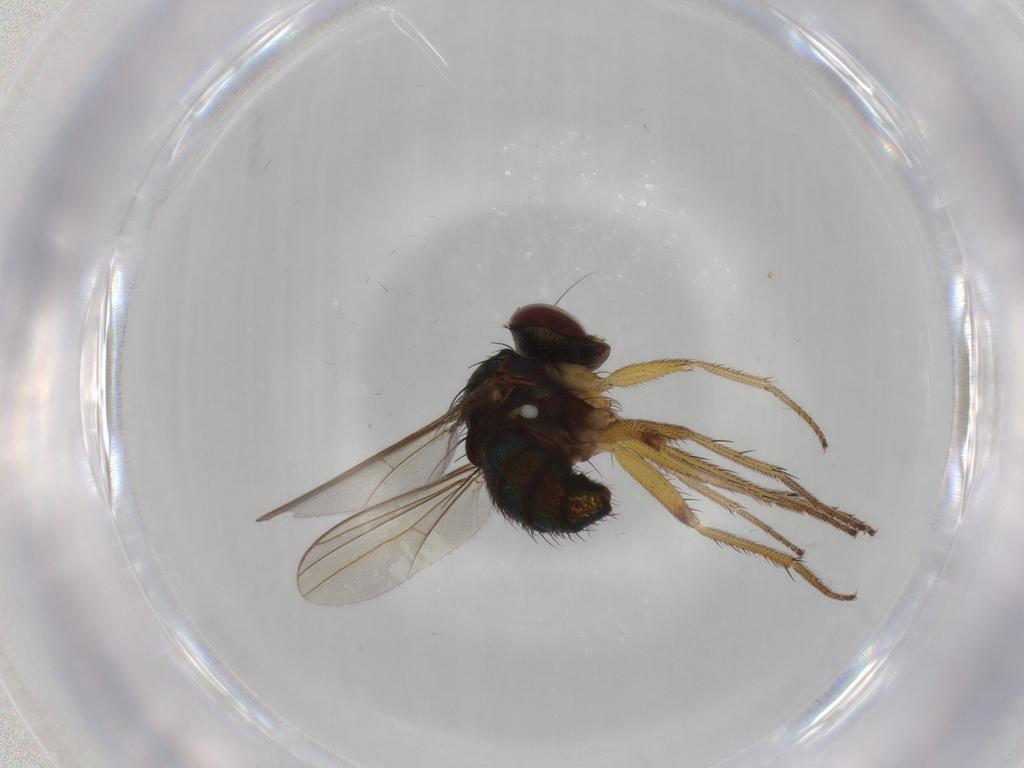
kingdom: Animalia
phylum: Arthropoda
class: Insecta
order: Diptera
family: Dolichopodidae
